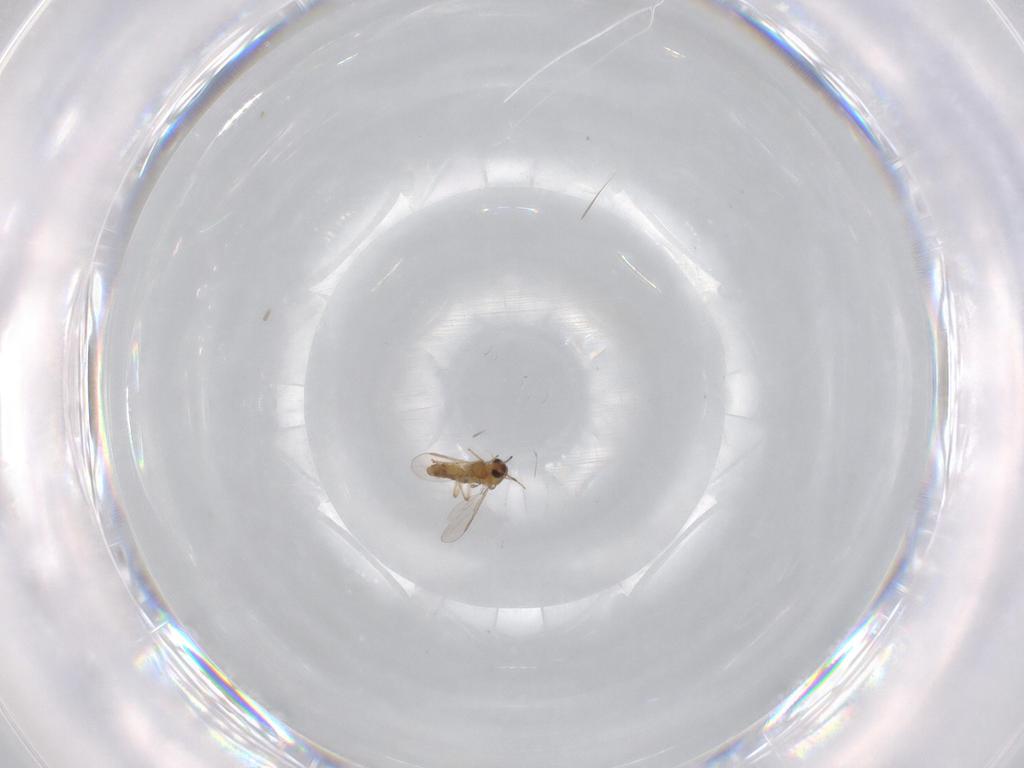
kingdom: Animalia
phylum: Arthropoda
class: Insecta
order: Diptera
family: Chironomidae
